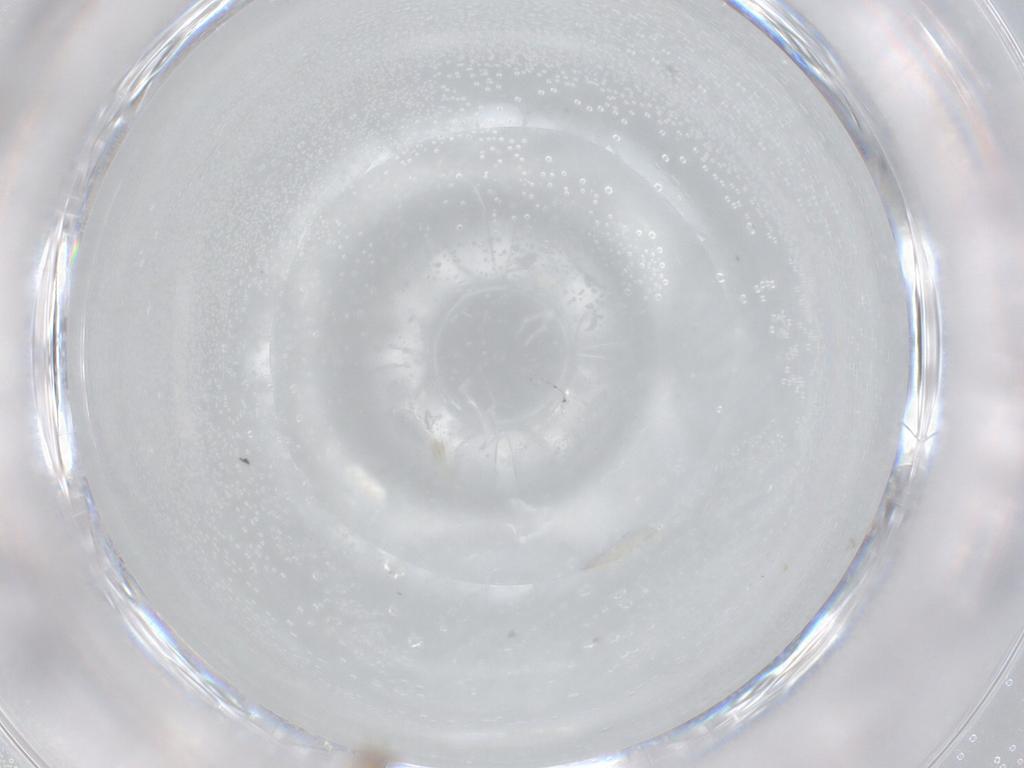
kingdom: Animalia
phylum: Arthropoda
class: Insecta
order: Diptera
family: Cecidomyiidae
